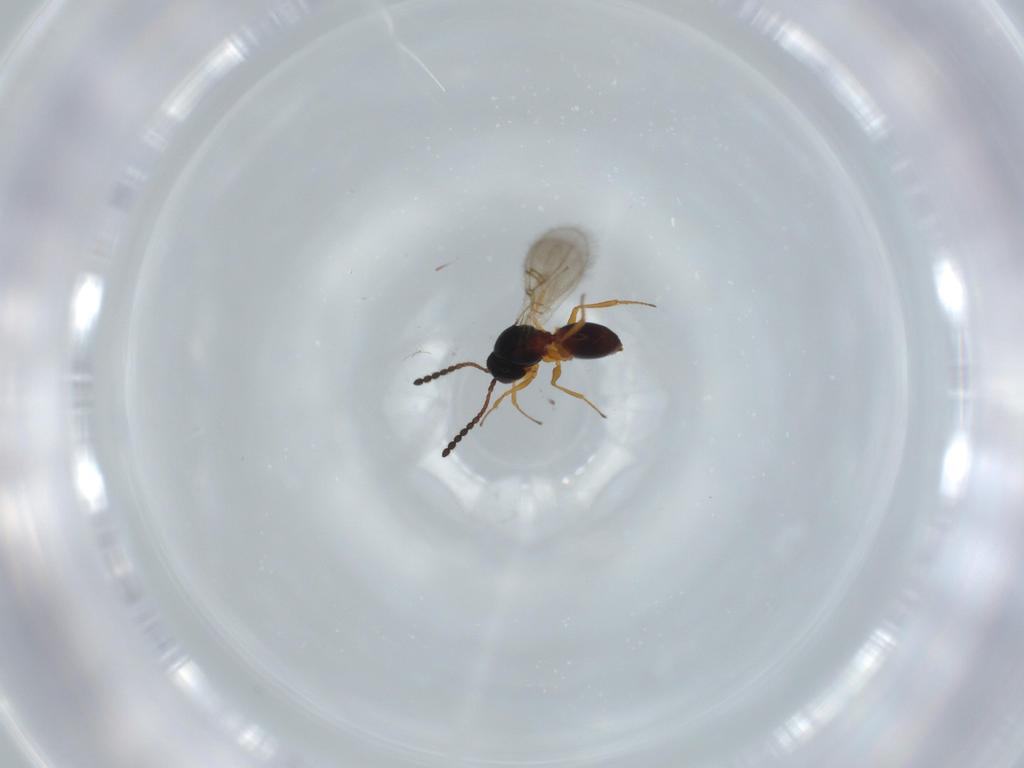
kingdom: Animalia
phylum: Arthropoda
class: Insecta
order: Hymenoptera
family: Figitidae
